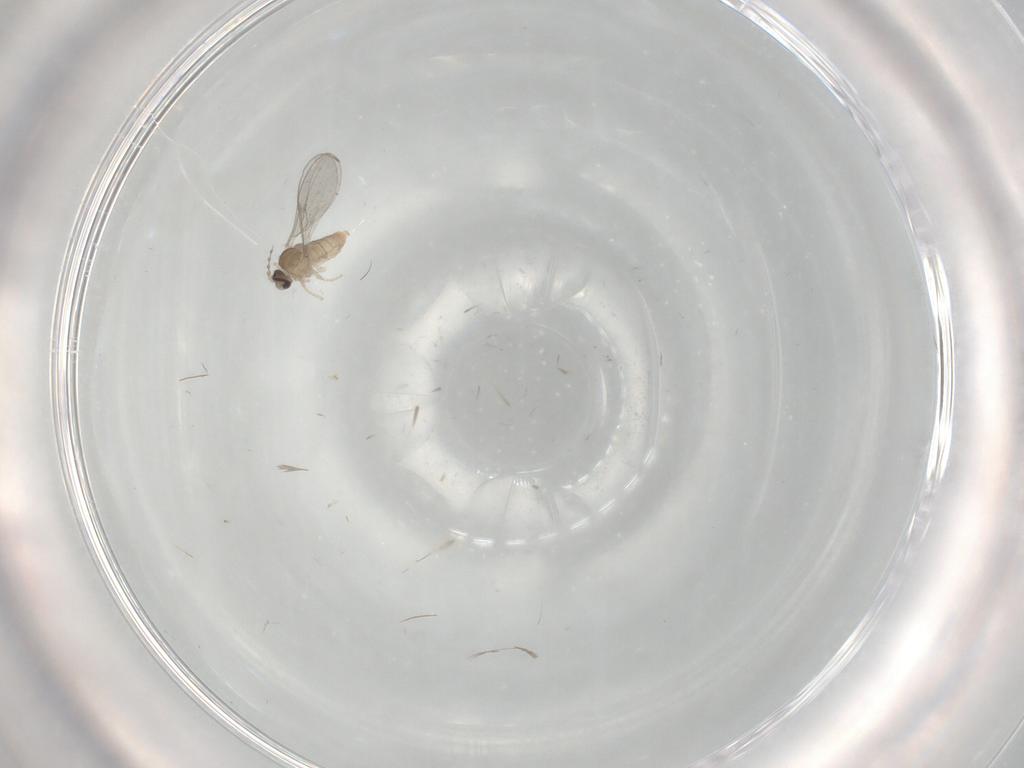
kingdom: Animalia
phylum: Arthropoda
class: Insecta
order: Diptera
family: Cecidomyiidae
